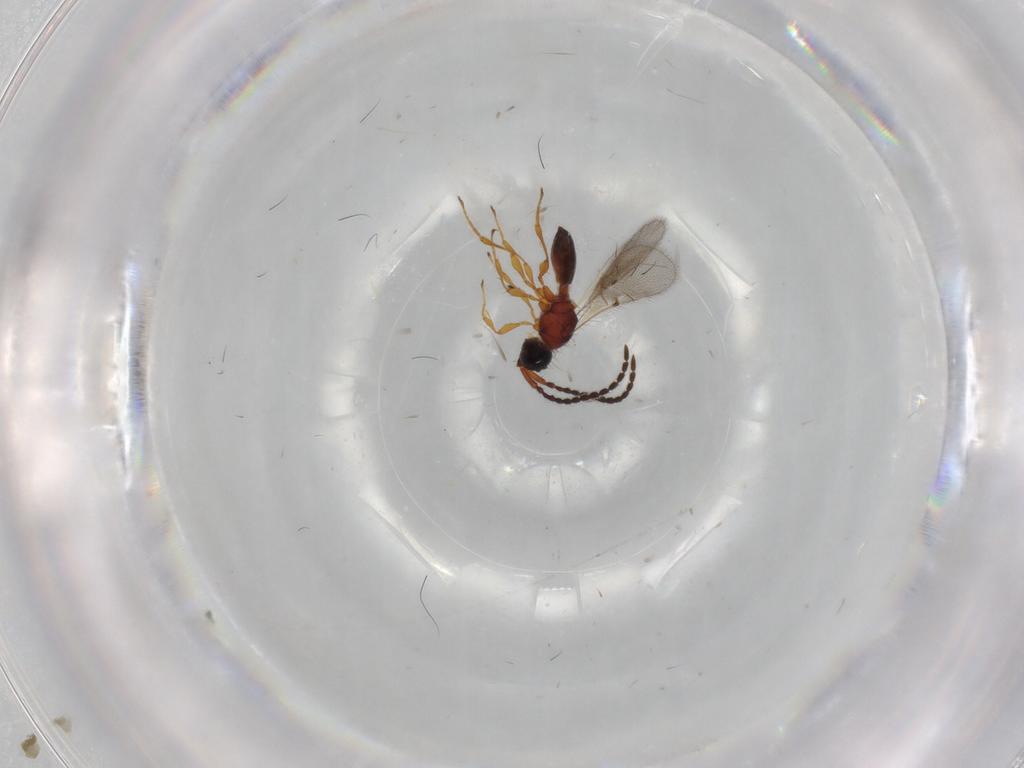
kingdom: Animalia
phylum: Arthropoda
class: Insecta
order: Hymenoptera
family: Diapriidae
